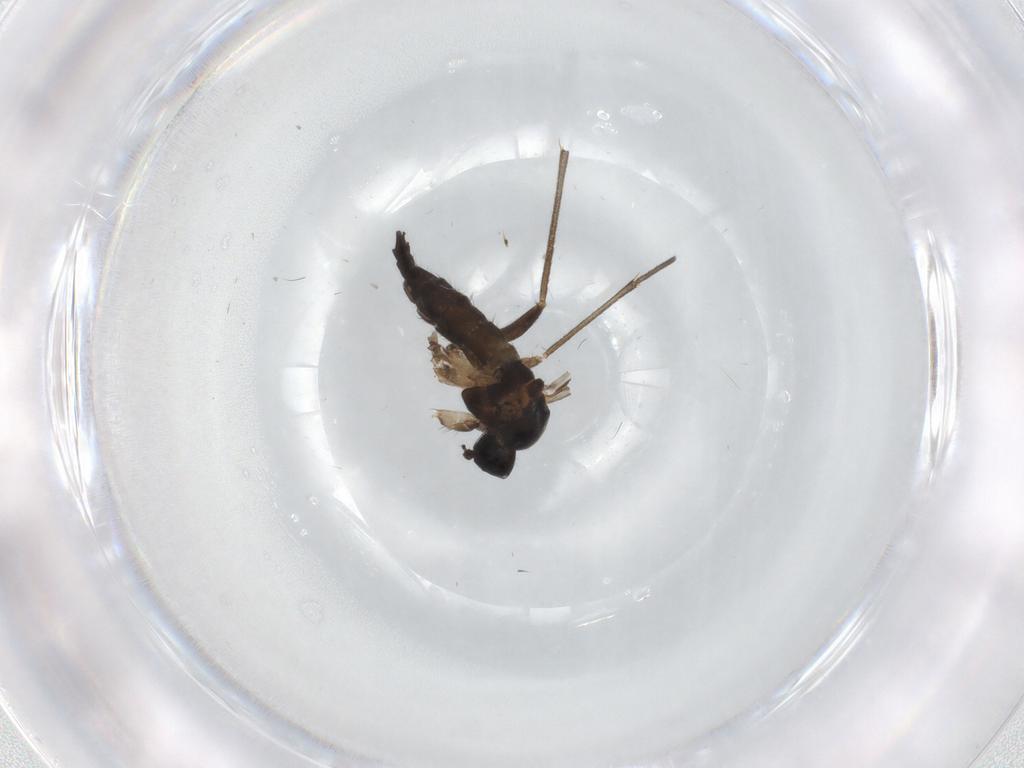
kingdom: Animalia
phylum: Arthropoda
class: Insecta
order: Diptera
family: Sciaridae
